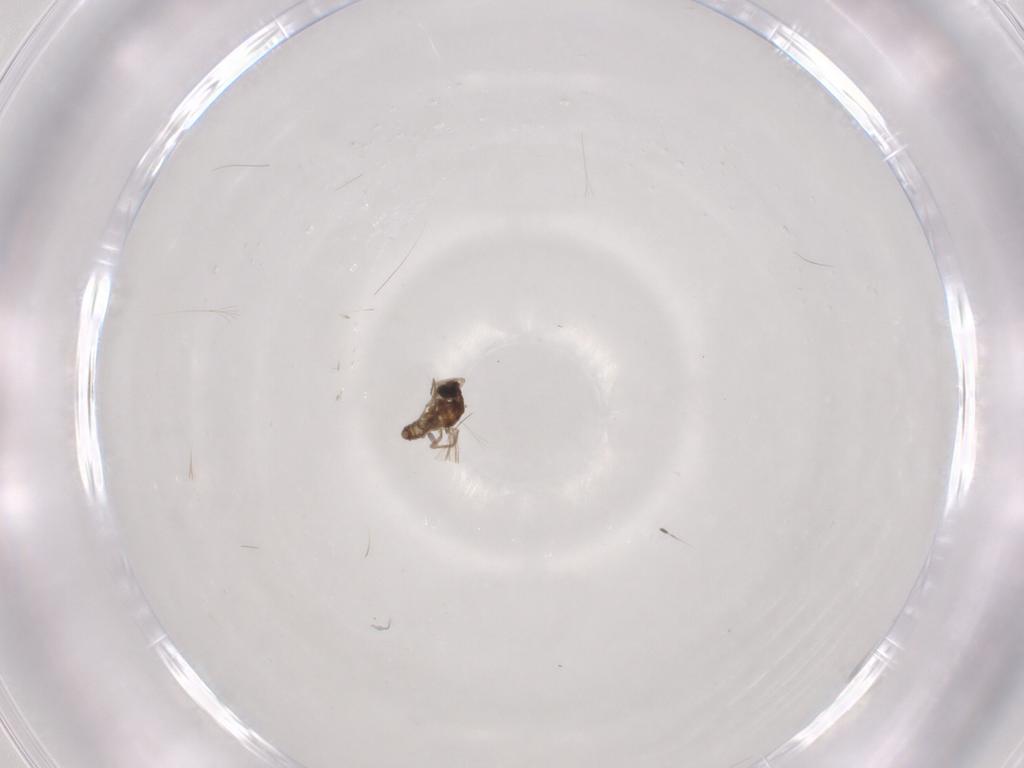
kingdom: Animalia
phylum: Arthropoda
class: Insecta
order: Diptera
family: Cecidomyiidae
